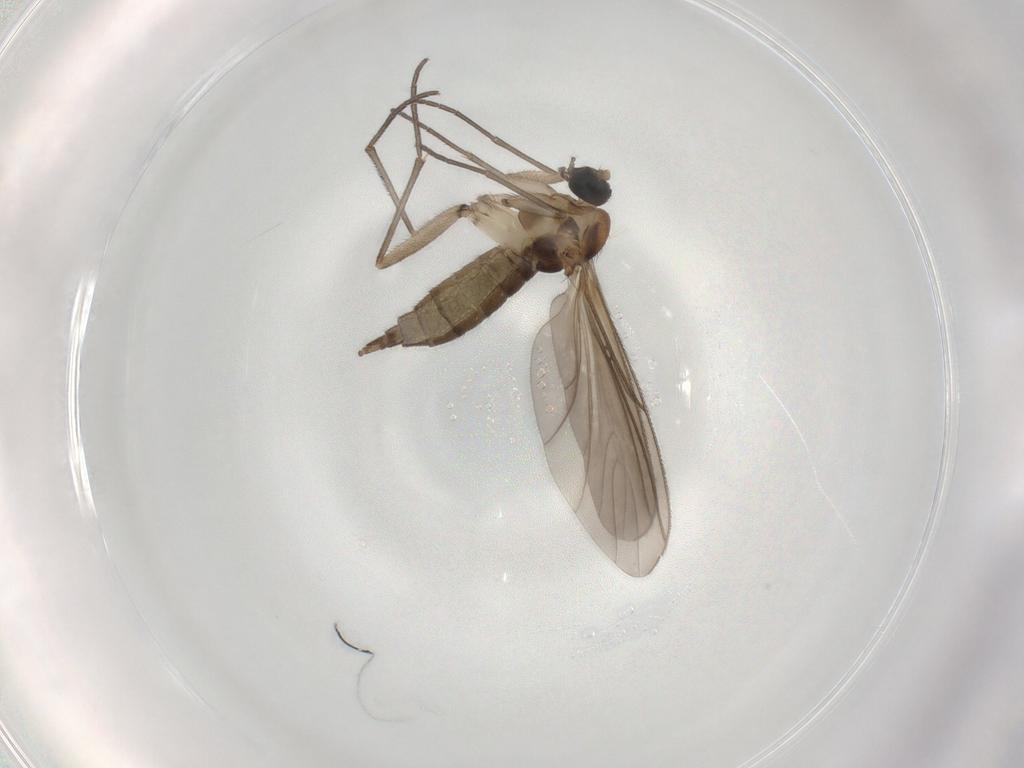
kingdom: Animalia
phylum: Arthropoda
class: Insecta
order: Diptera
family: Sciaridae
